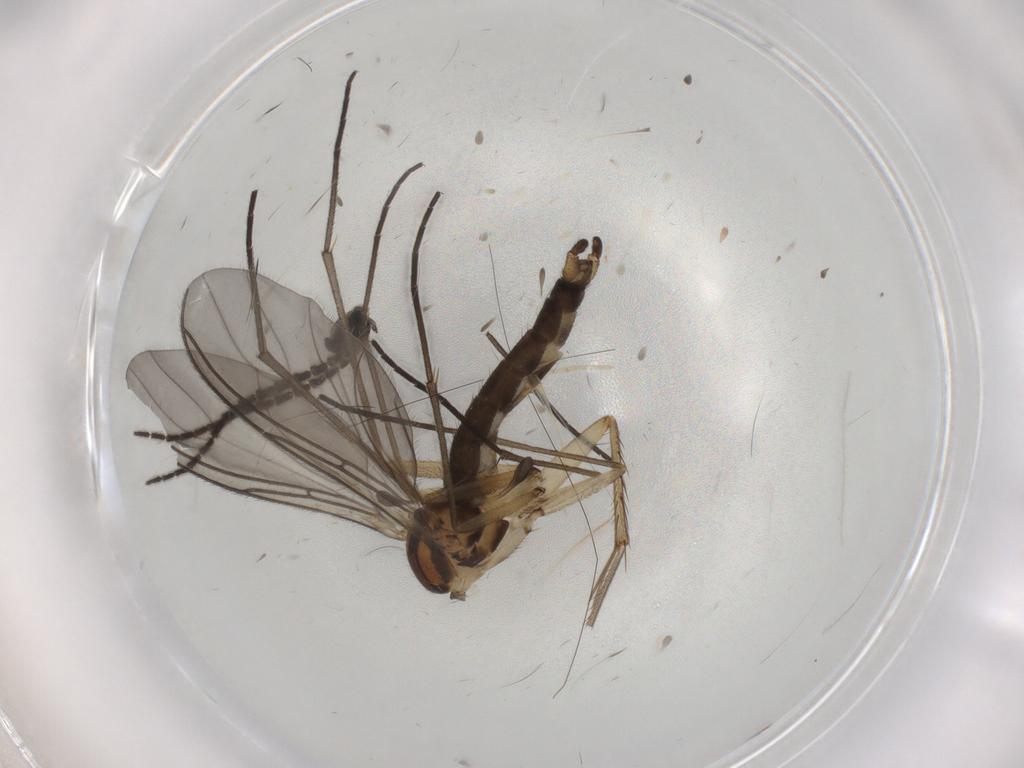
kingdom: Animalia
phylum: Arthropoda
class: Insecta
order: Diptera
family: Sciaridae
